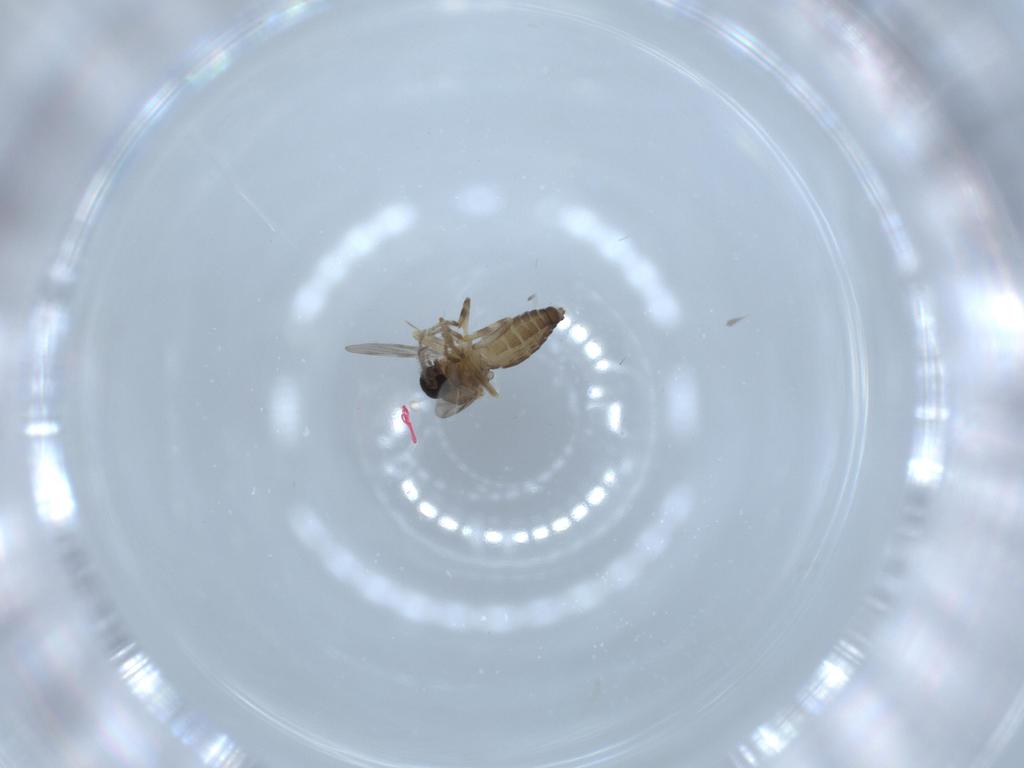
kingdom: Animalia
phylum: Arthropoda
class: Insecta
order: Diptera
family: Ceratopogonidae
